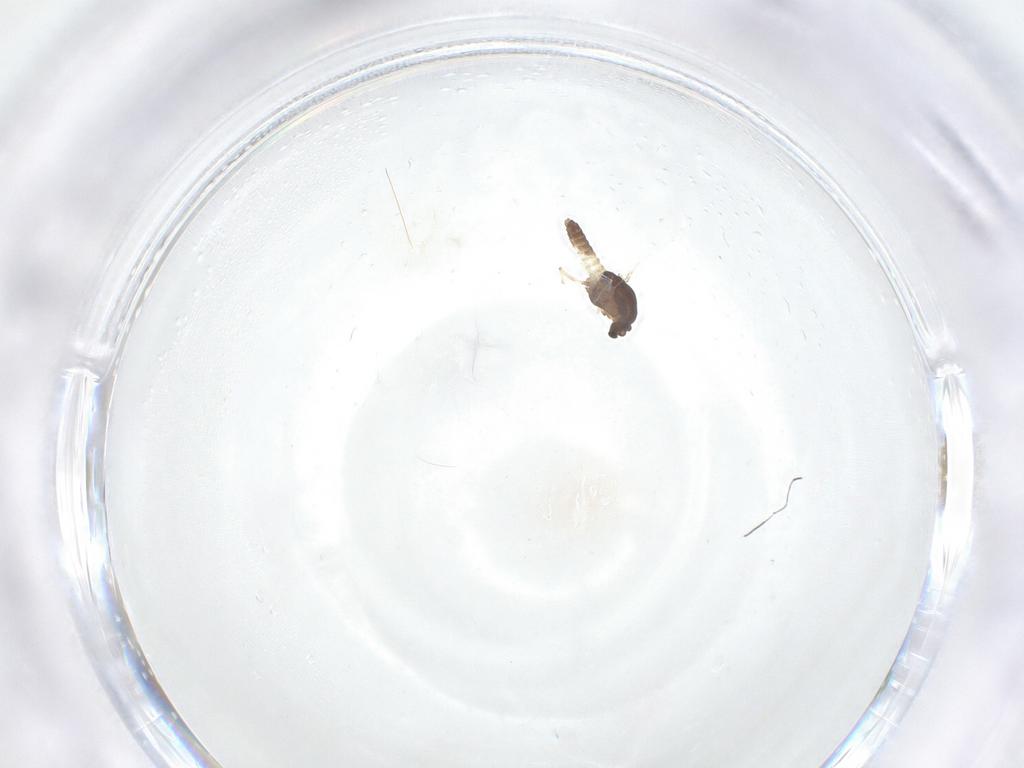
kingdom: Animalia
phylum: Arthropoda
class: Insecta
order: Diptera
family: Chironomidae
